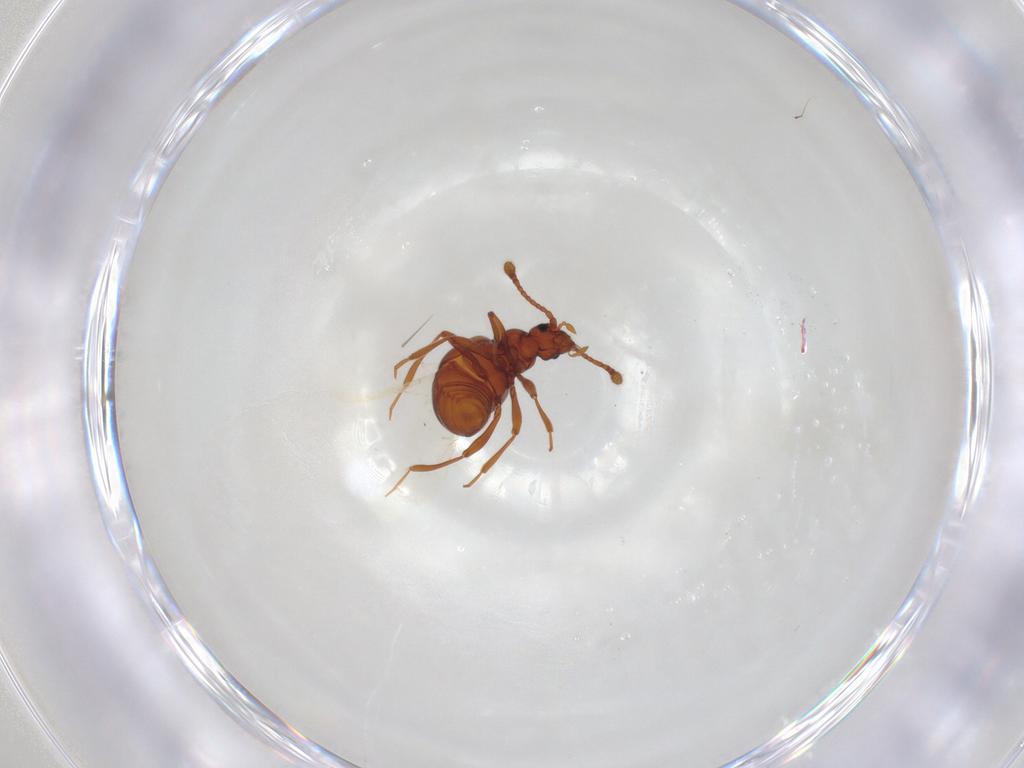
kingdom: Animalia
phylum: Arthropoda
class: Insecta
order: Coleoptera
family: Staphylinidae
